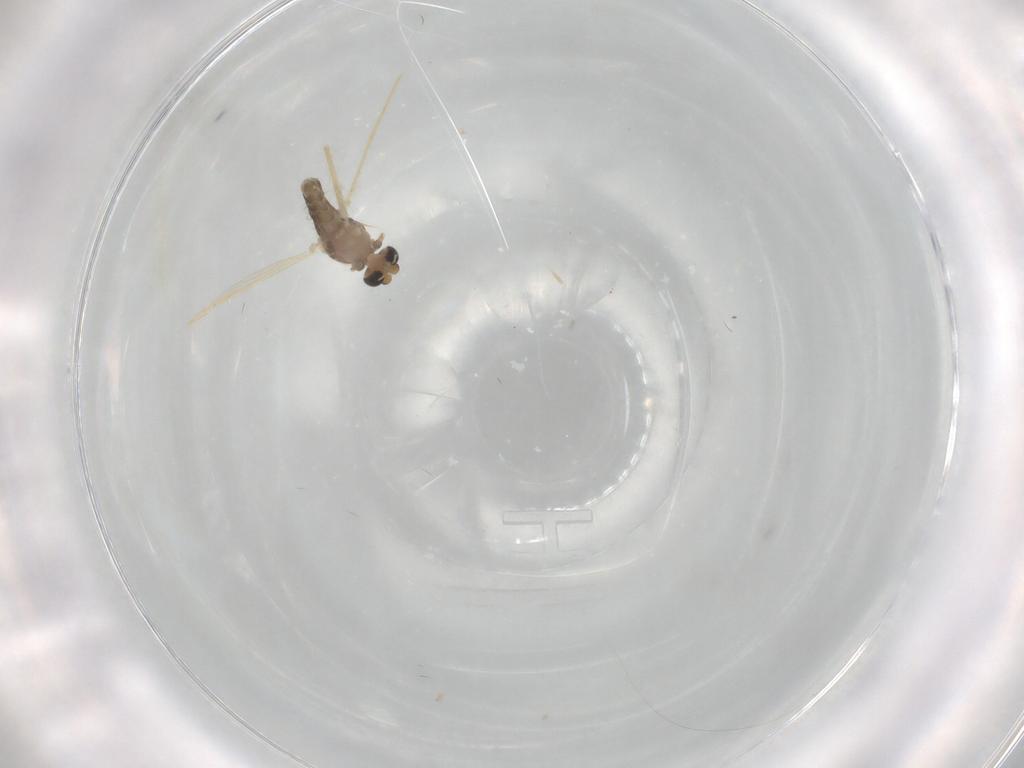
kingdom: Animalia
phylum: Arthropoda
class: Insecta
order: Diptera
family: Chironomidae
